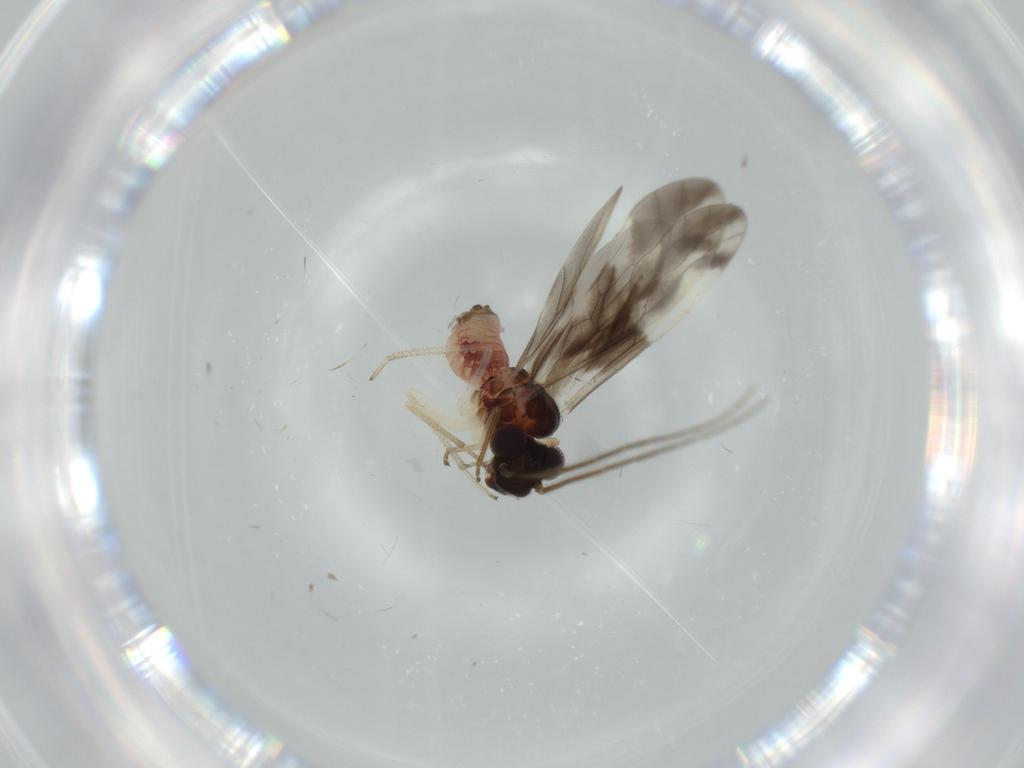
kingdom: Animalia
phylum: Arthropoda
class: Insecta
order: Psocodea
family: Caeciliusidae
